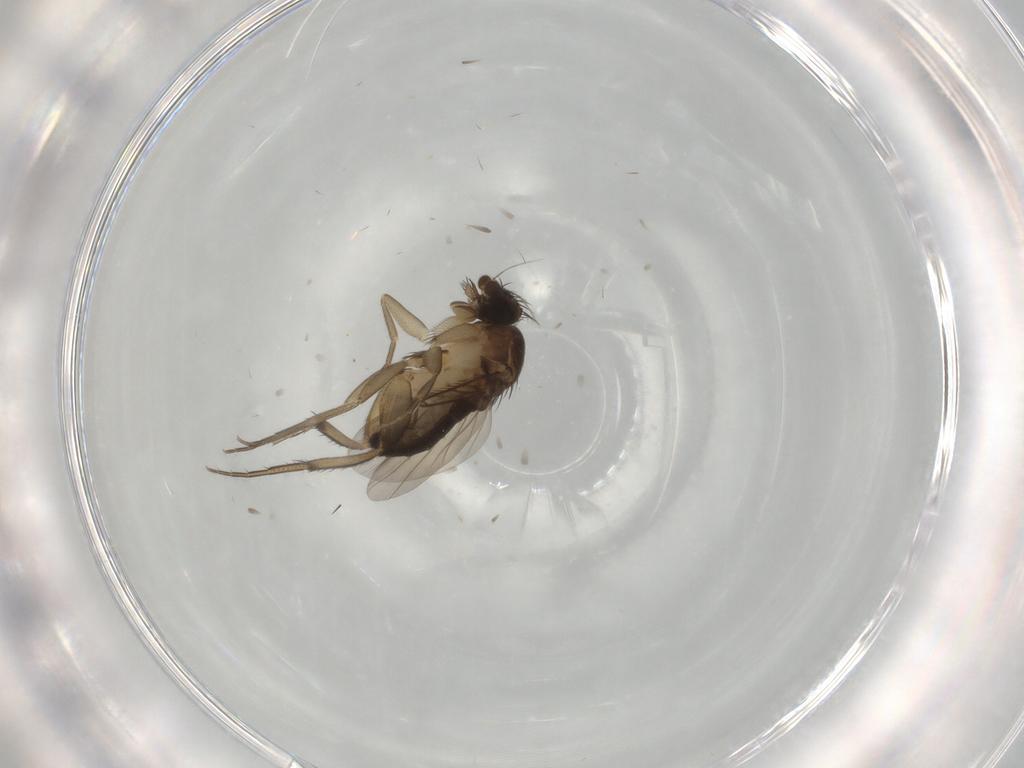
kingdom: Animalia
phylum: Arthropoda
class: Insecta
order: Diptera
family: Phoridae
